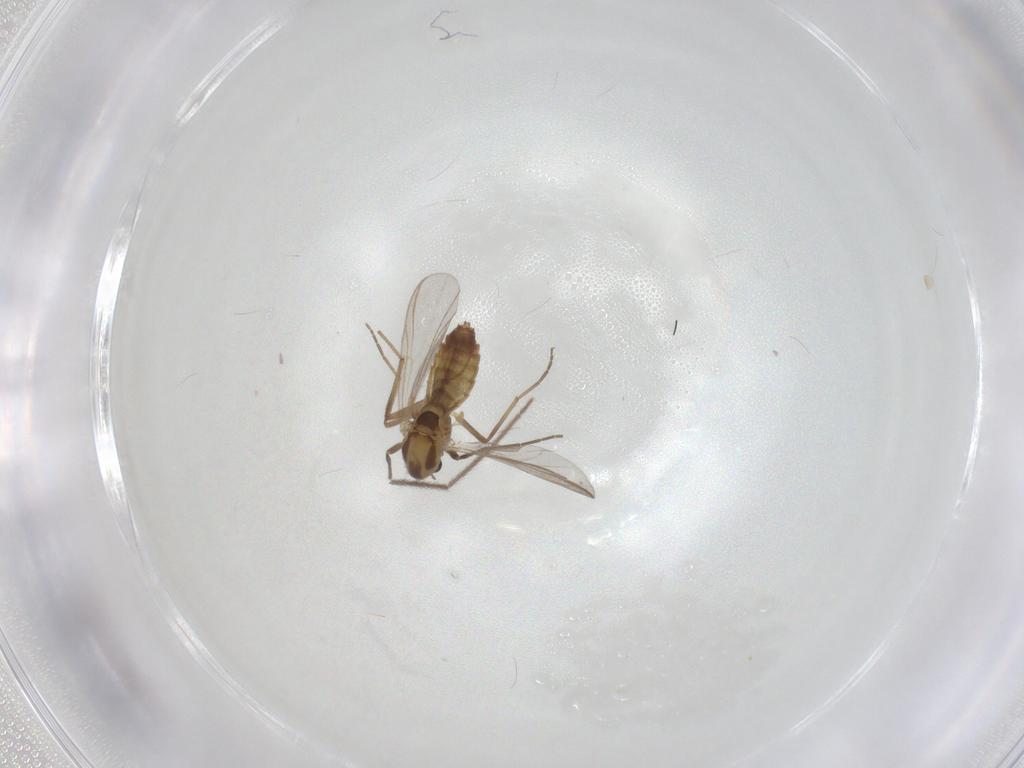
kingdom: Animalia
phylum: Arthropoda
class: Insecta
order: Diptera
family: Chironomidae
